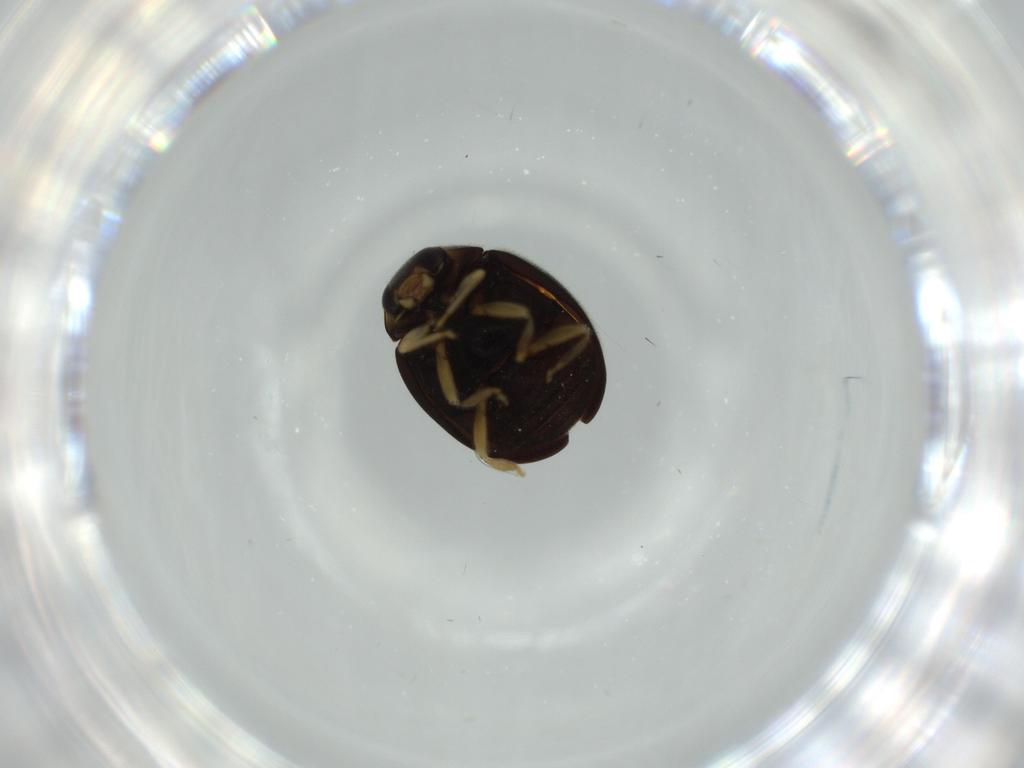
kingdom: Animalia
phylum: Arthropoda
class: Insecta
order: Coleoptera
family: Coccinellidae
